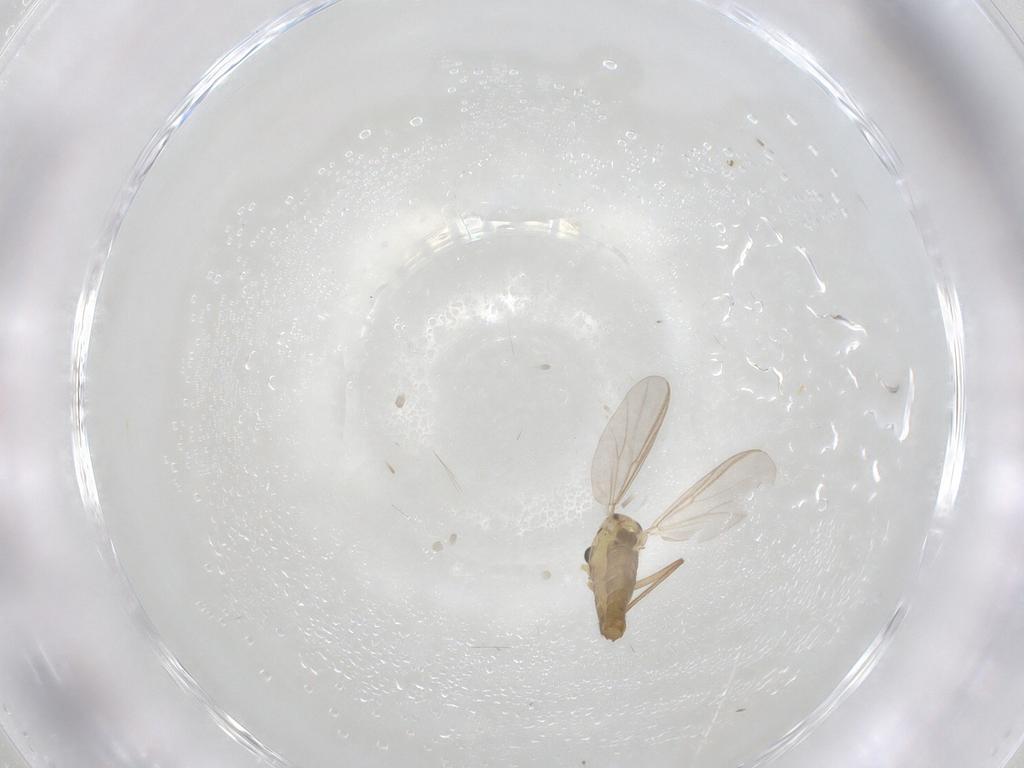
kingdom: Animalia
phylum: Arthropoda
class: Insecta
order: Diptera
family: Chironomidae
